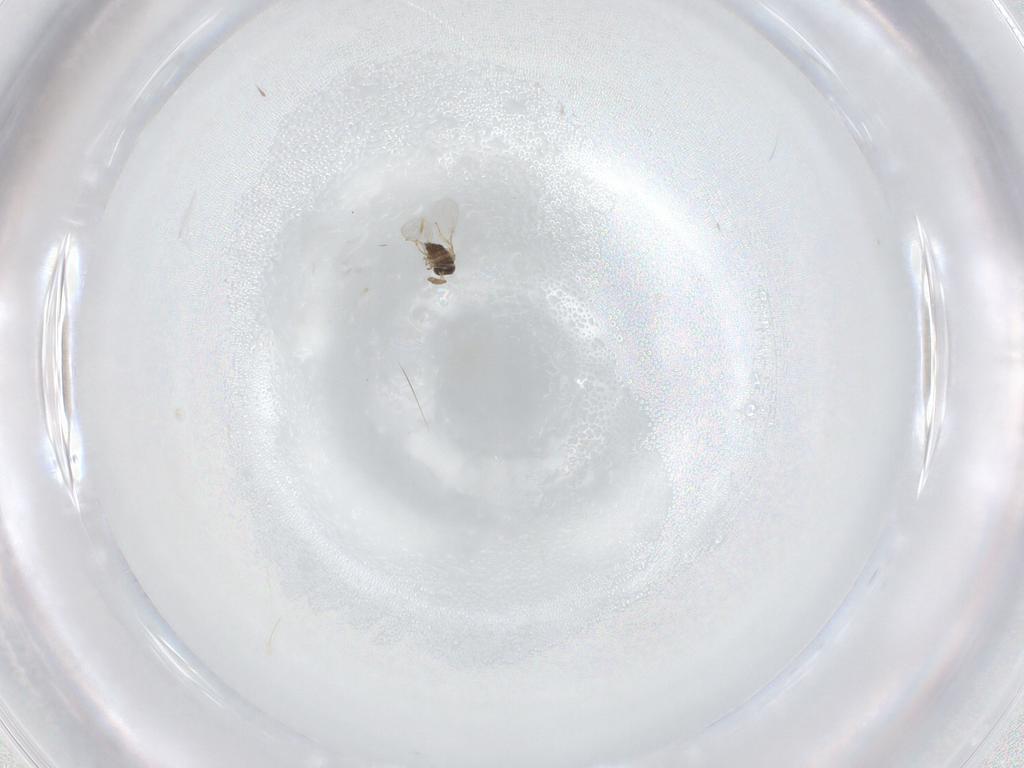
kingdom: Animalia
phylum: Arthropoda
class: Insecta
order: Hymenoptera
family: Encyrtidae
